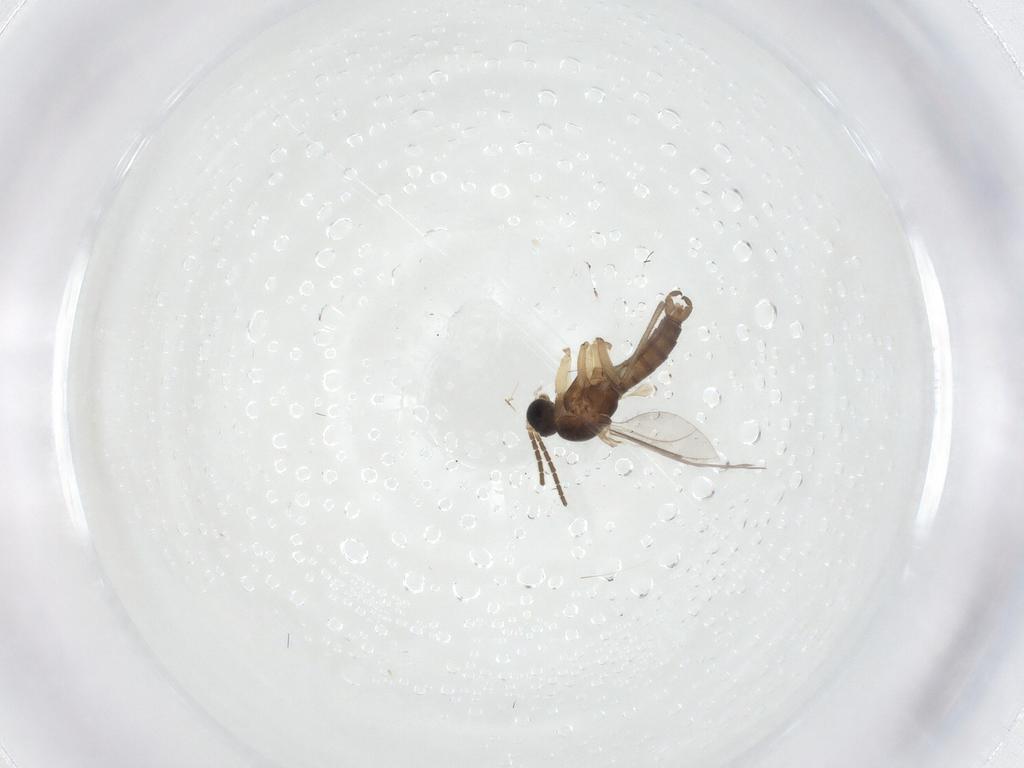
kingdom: Animalia
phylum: Arthropoda
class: Insecta
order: Diptera
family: Sciaridae
